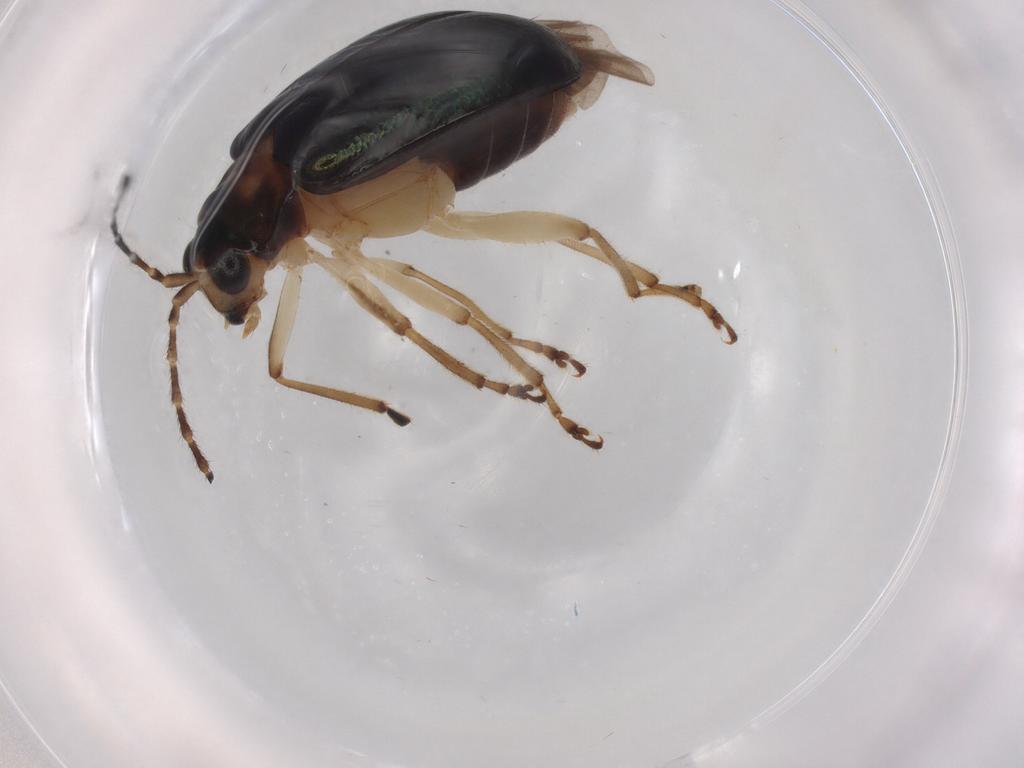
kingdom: Animalia
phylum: Arthropoda
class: Insecta
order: Coleoptera
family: Chrysomelidae
